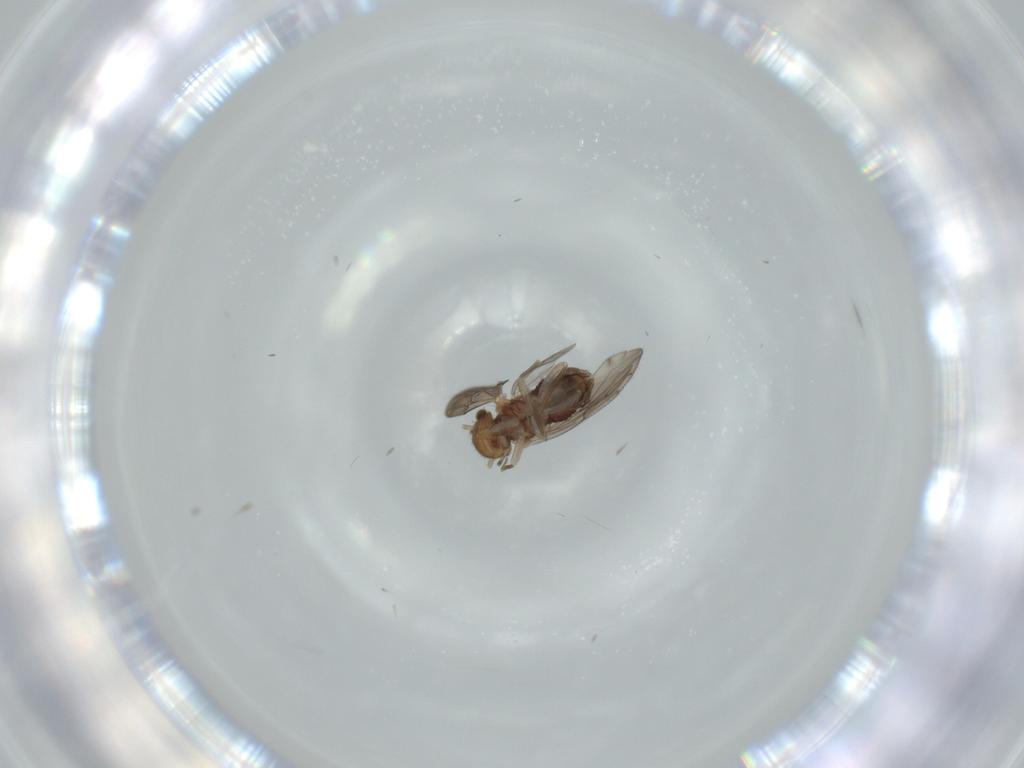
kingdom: Animalia
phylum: Arthropoda
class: Insecta
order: Psocodea
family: Ectopsocidae
